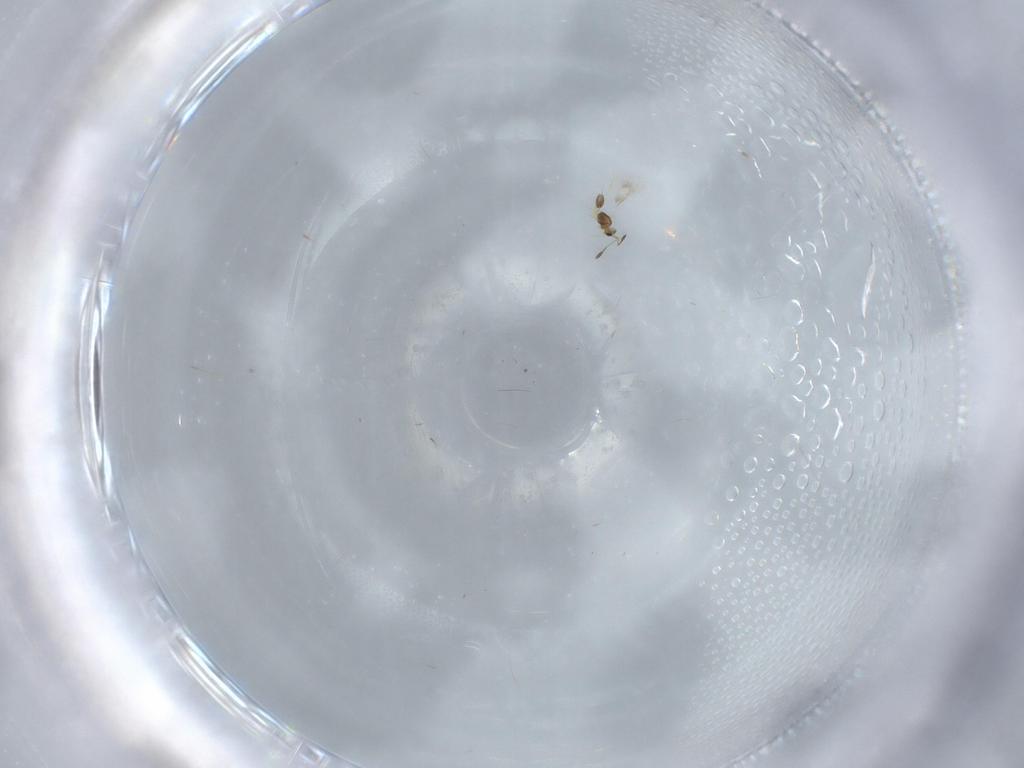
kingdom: Animalia
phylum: Arthropoda
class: Insecta
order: Hymenoptera
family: Mymarommatidae
